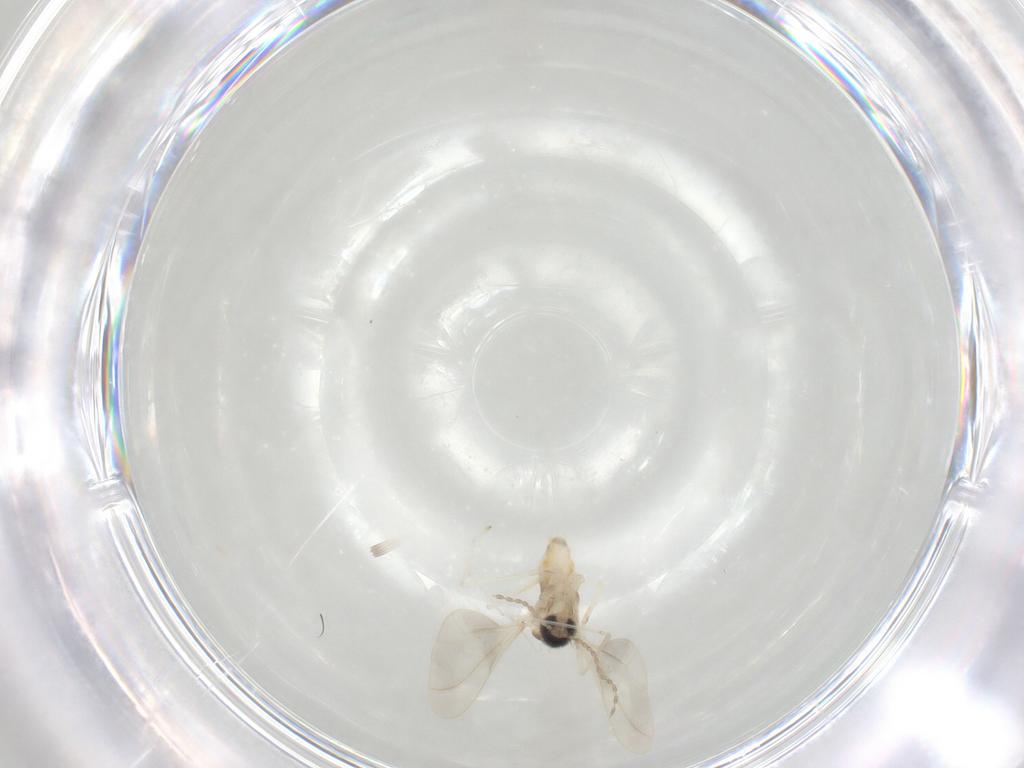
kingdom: Animalia
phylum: Arthropoda
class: Insecta
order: Diptera
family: Cecidomyiidae
